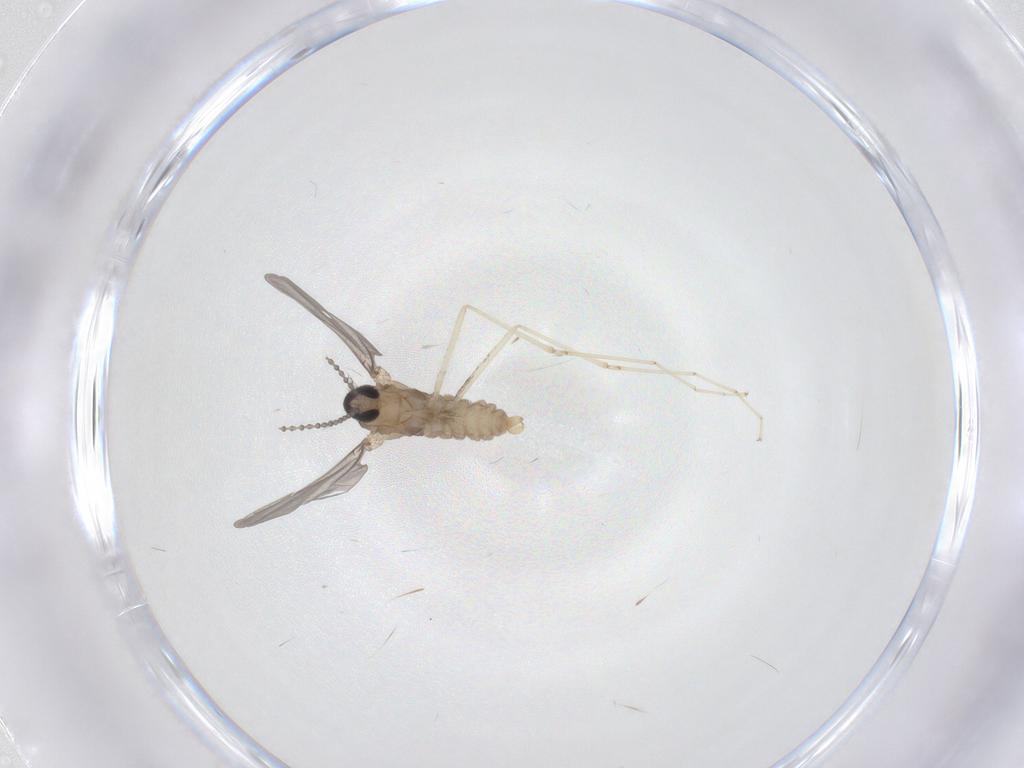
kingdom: Animalia
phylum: Arthropoda
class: Insecta
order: Diptera
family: Cecidomyiidae
